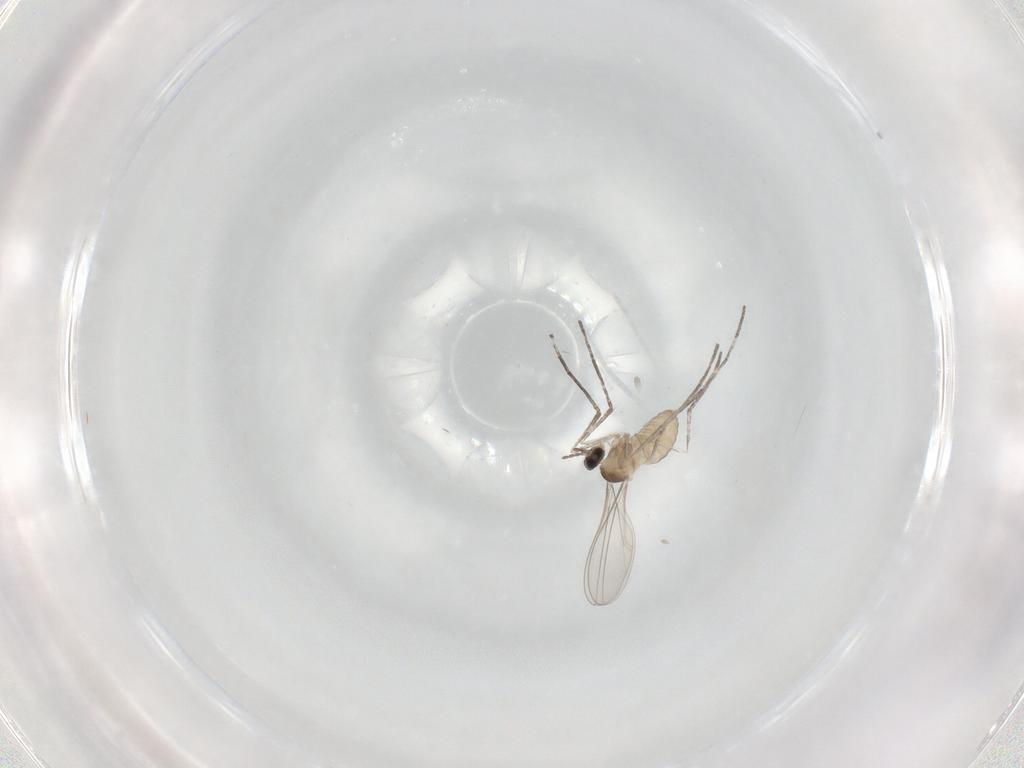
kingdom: Animalia
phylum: Arthropoda
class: Insecta
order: Diptera
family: Cecidomyiidae
